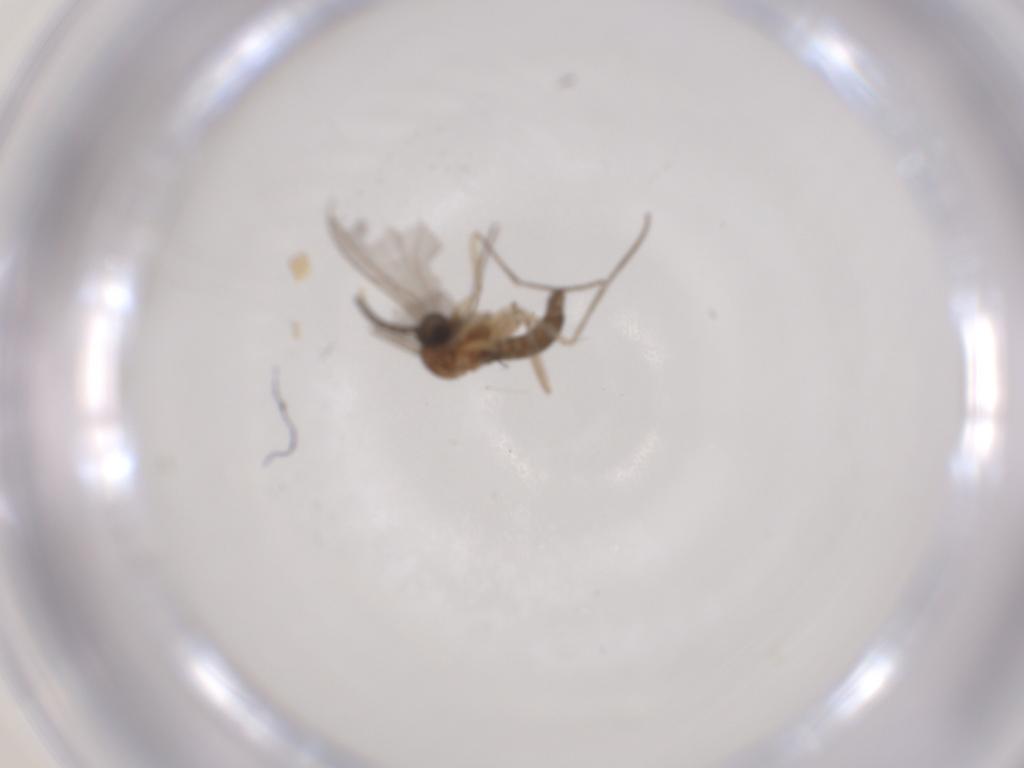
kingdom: Animalia
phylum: Arthropoda
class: Insecta
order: Diptera
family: Sciaridae
